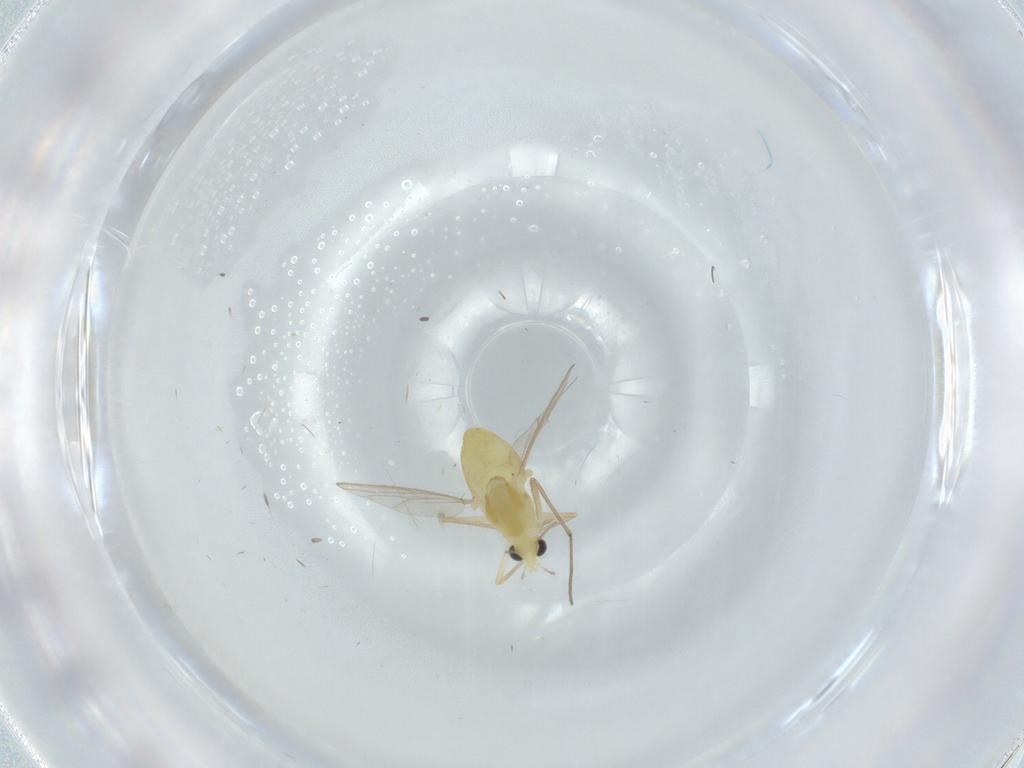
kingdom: Animalia
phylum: Arthropoda
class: Insecta
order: Diptera
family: Chironomidae
